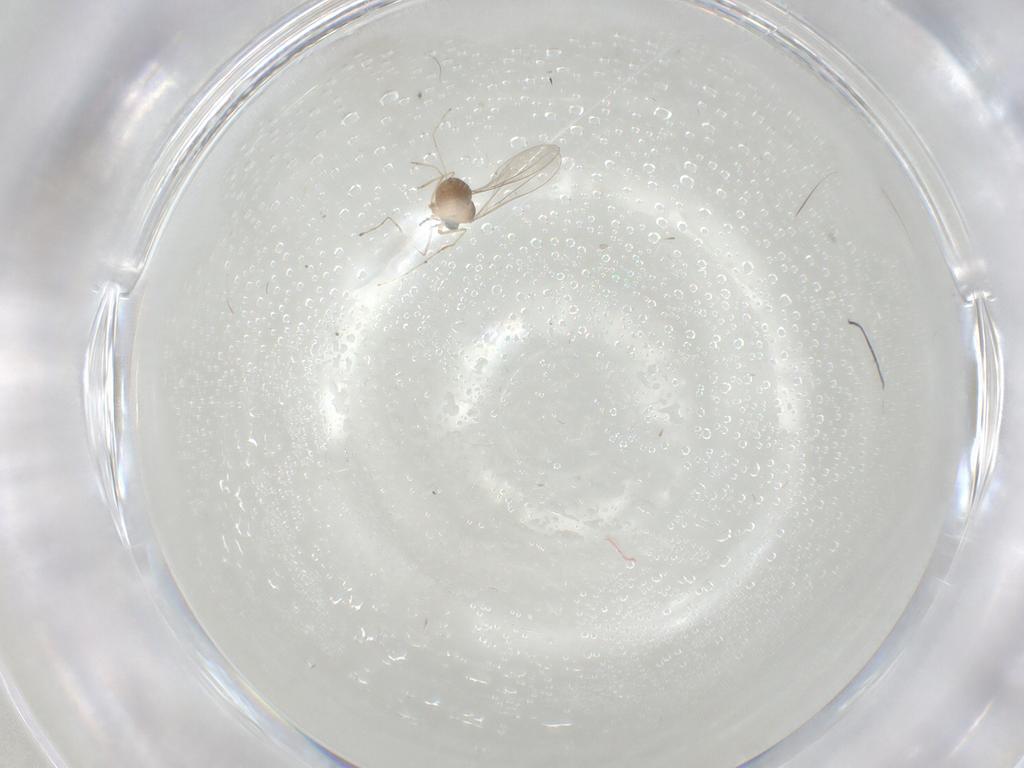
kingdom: Animalia
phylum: Arthropoda
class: Insecta
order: Diptera
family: Cecidomyiidae
